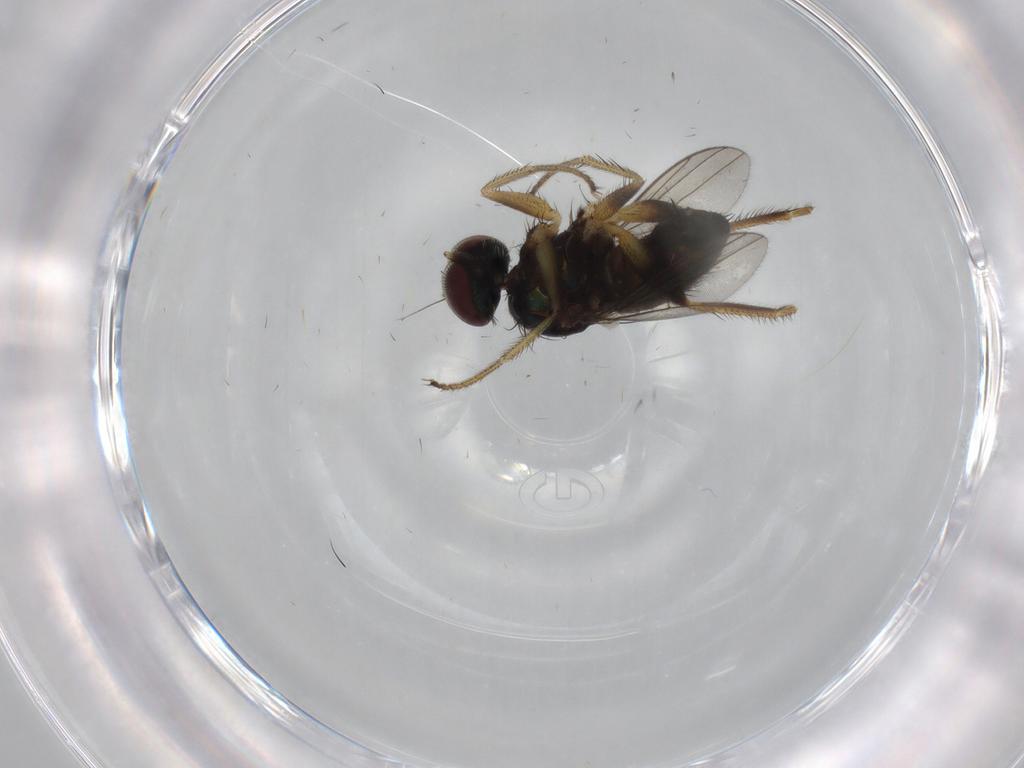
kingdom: Animalia
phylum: Arthropoda
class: Insecta
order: Diptera
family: Dolichopodidae
